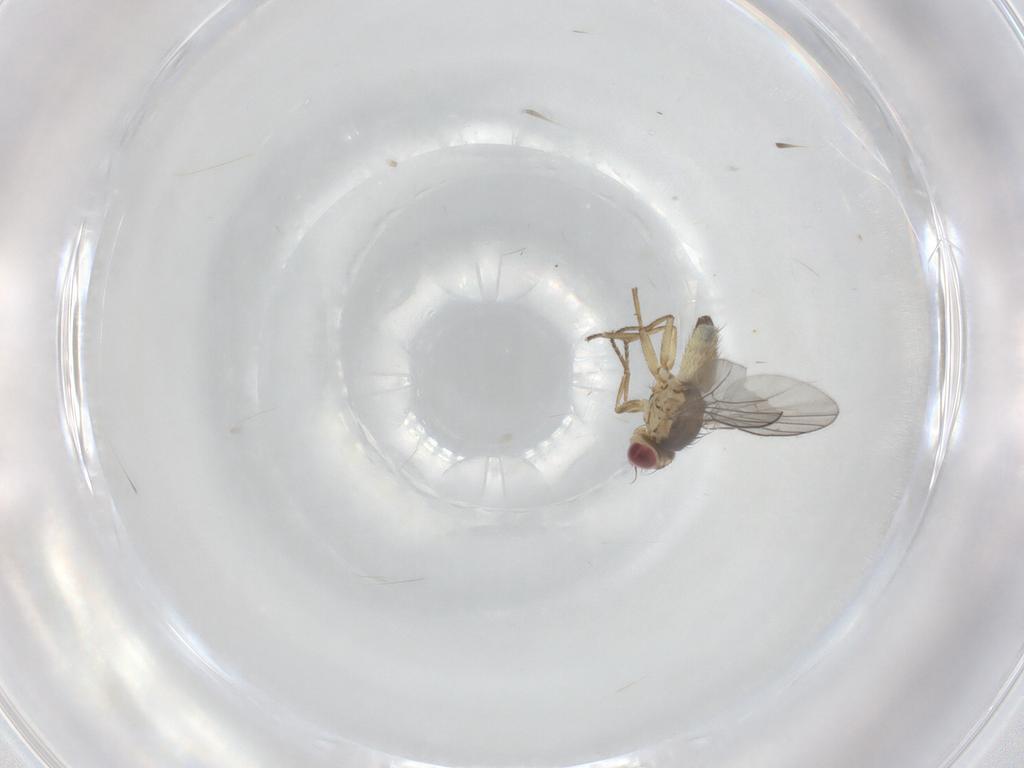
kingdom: Animalia
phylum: Arthropoda
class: Insecta
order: Diptera
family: Agromyzidae
